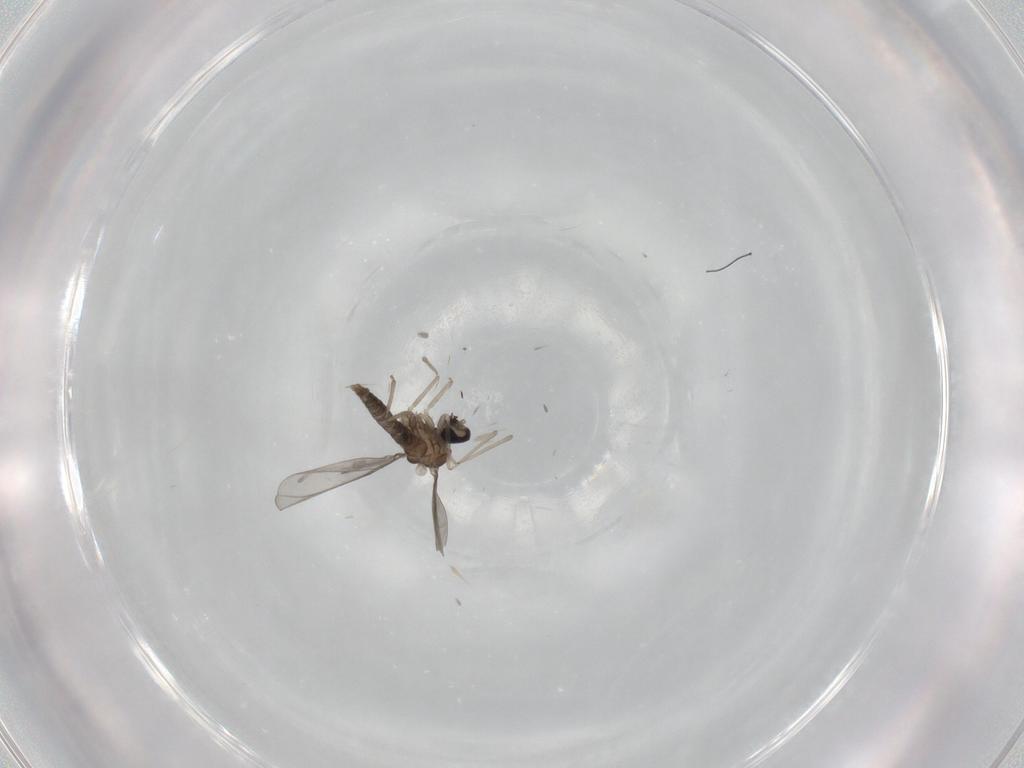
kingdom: Animalia
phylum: Arthropoda
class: Insecta
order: Diptera
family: Cecidomyiidae
